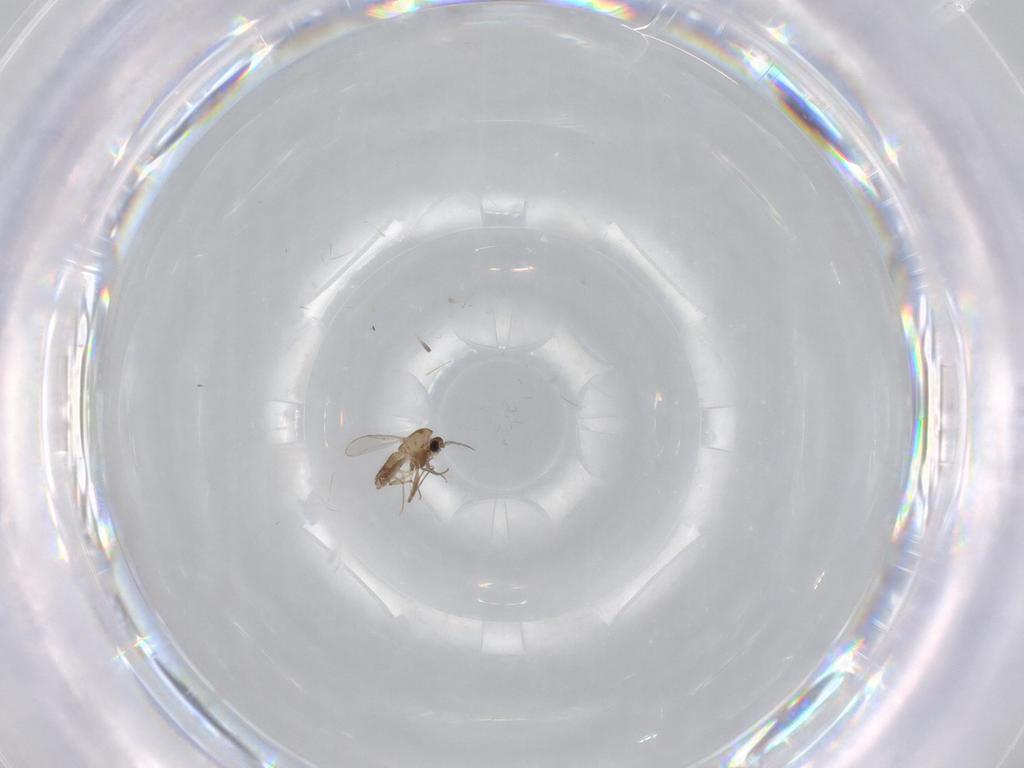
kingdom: Animalia
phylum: Arthropoda
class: Insecta
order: Diptera
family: Chironomidae
